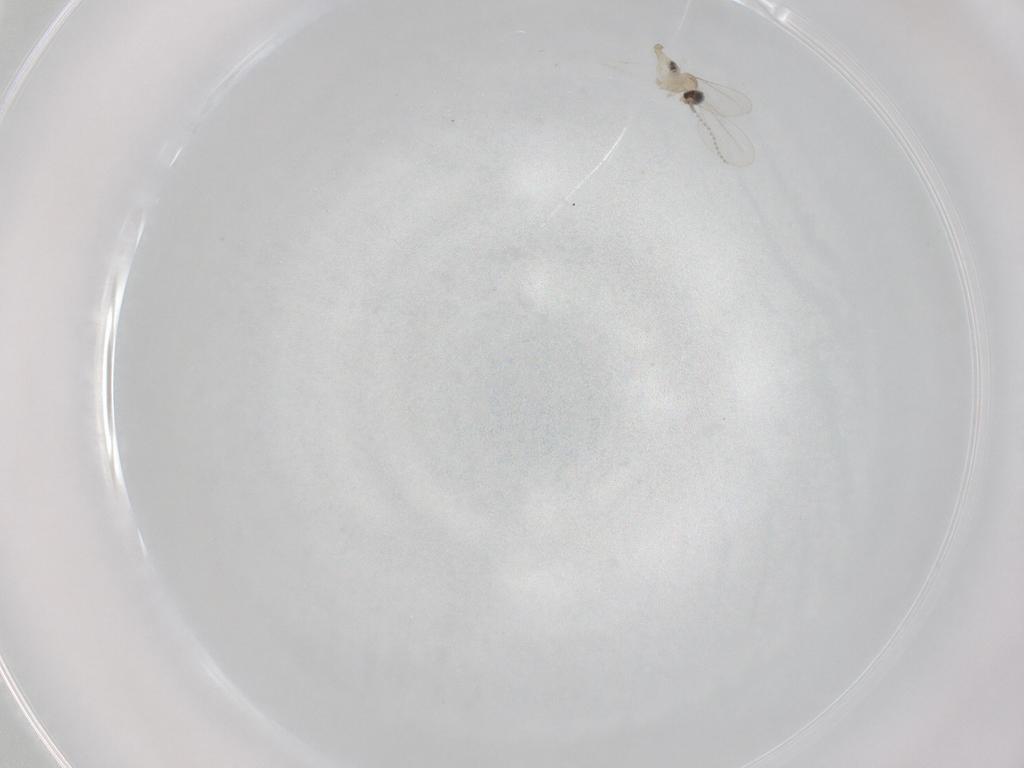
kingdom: Animalia
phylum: Arthropoda
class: Insecta
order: Diptera
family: Cecidomyiidae
